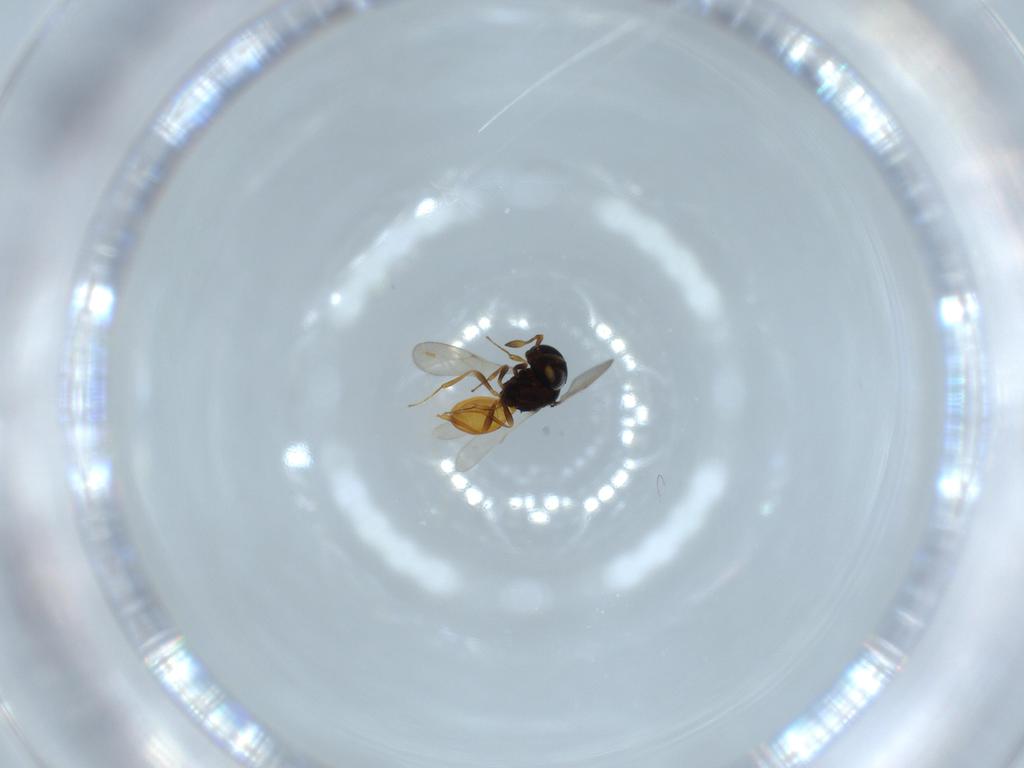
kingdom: Animalia
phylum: Arthropoda
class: Insecta
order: Hymenoptera
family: Scelionidae
